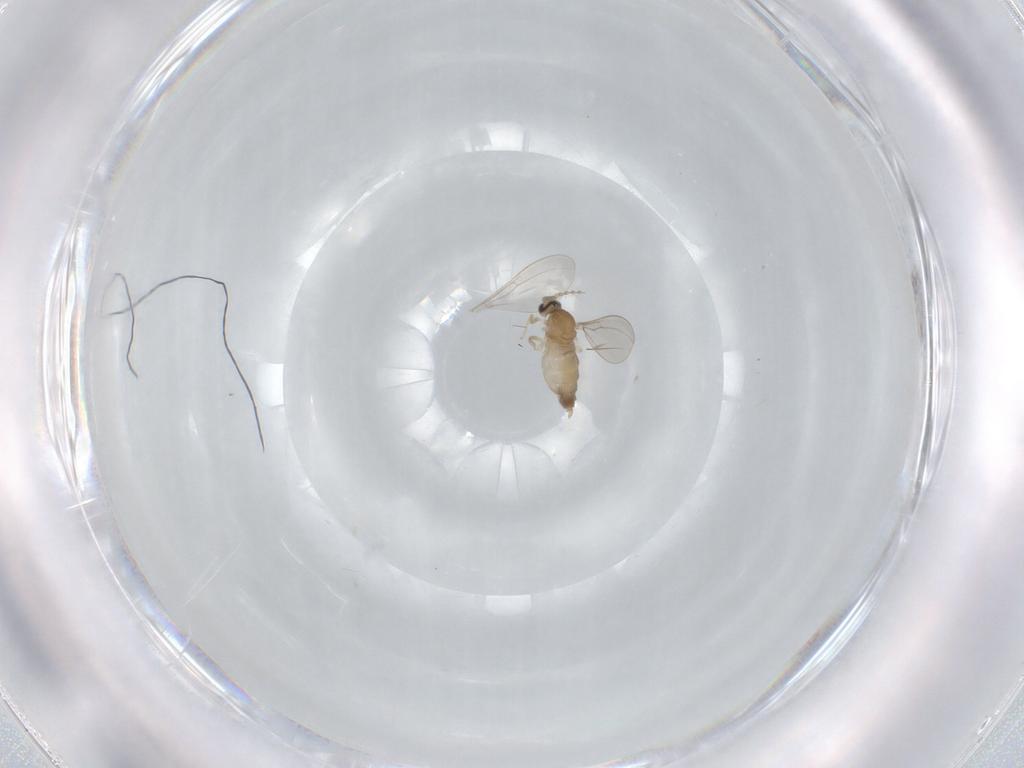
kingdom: Animalia
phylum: Arthropoda
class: Insecta
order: Diptera
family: Cecidomyiidae
